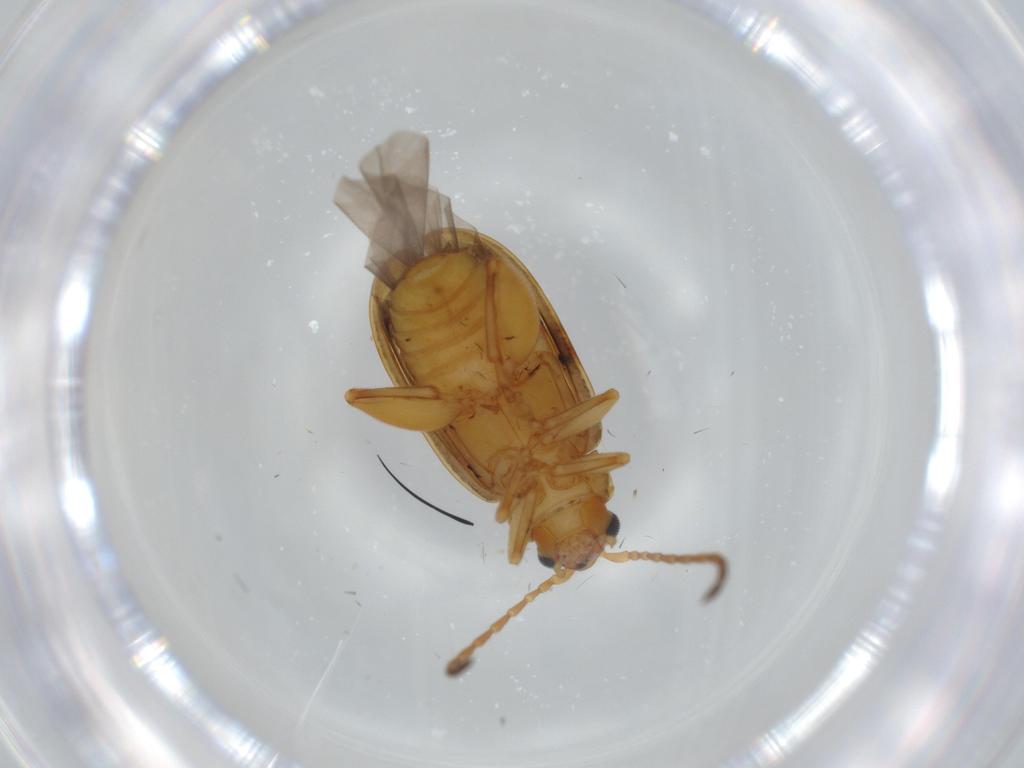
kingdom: Animalia
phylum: Arthropoda
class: Insecta
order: Coleoptera
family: Chrysomelidae
